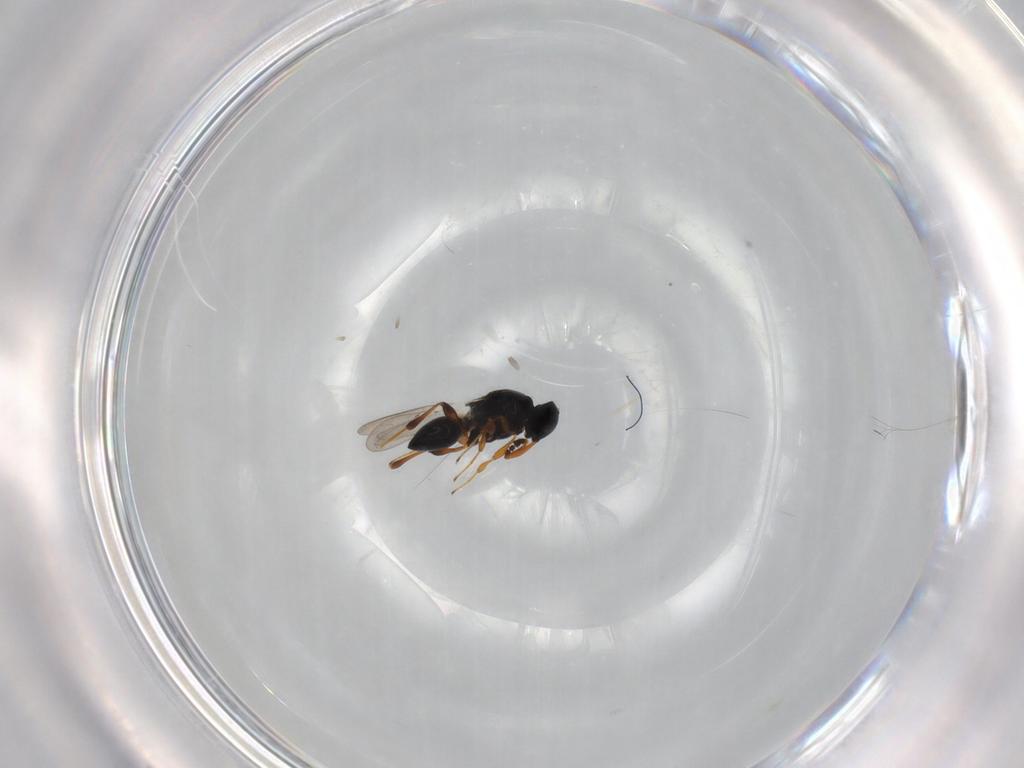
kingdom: Animalia
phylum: Arthropoda
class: Insecta
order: Hymenoptera
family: Platygastridae
